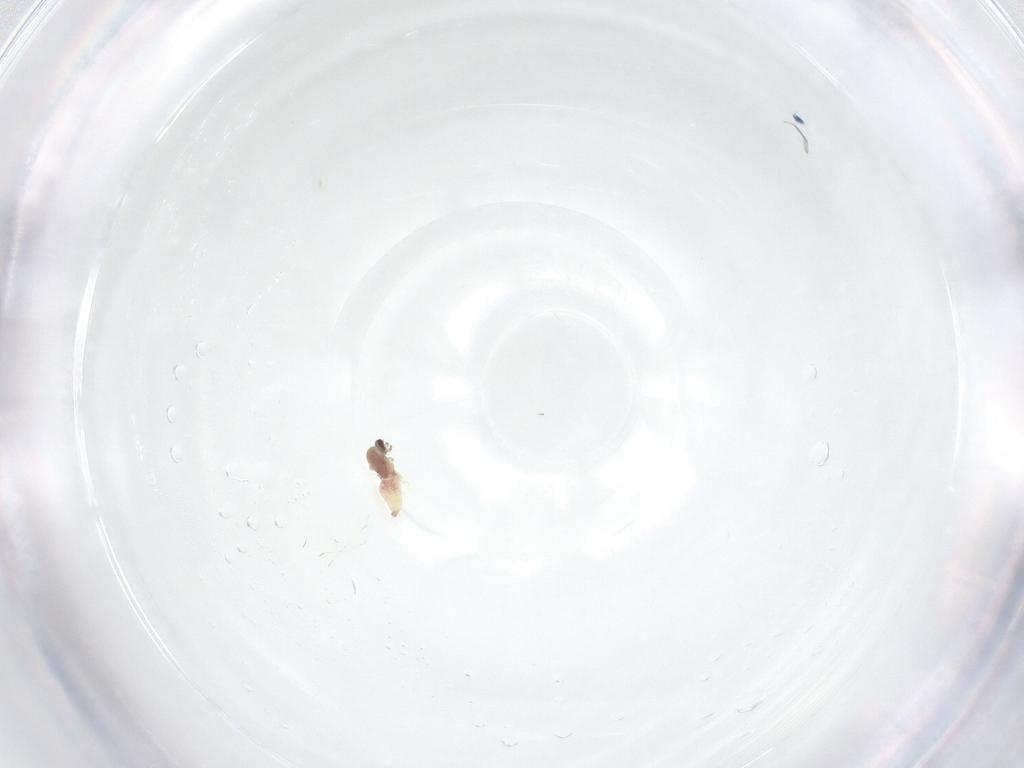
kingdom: Animalia
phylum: Arthropoda
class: Insecta
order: Diptera
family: Cecidomyiidae
